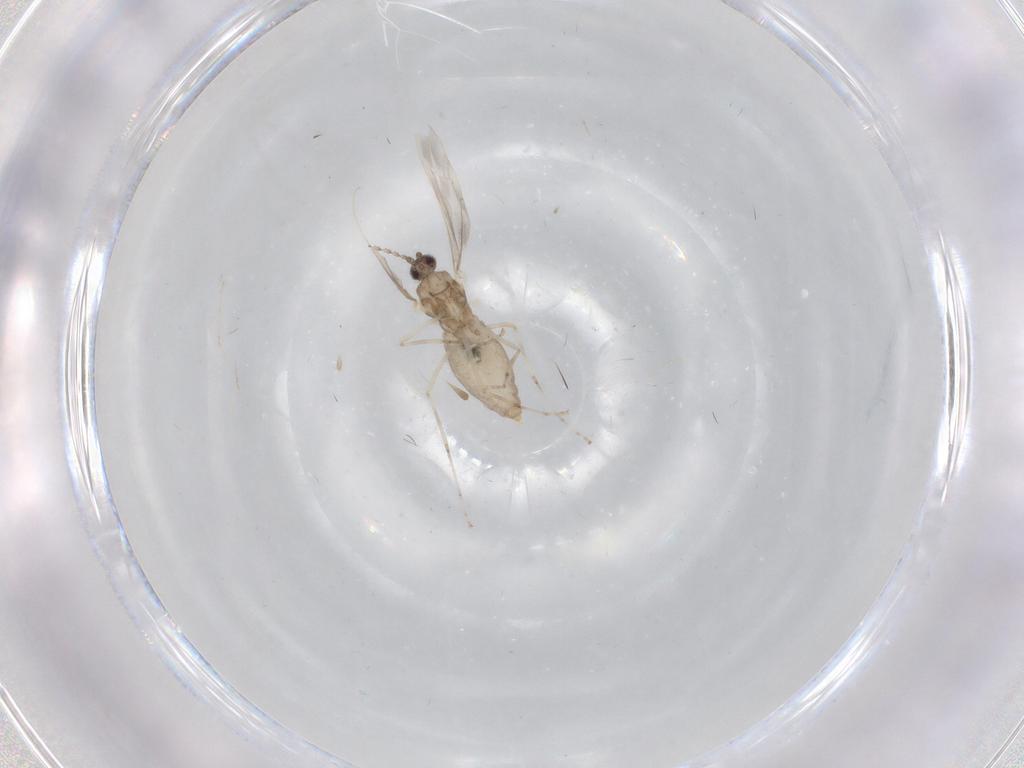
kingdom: Animalia
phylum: Arthropoda
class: Insecta
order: Diptera
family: Cecidomyiidae
